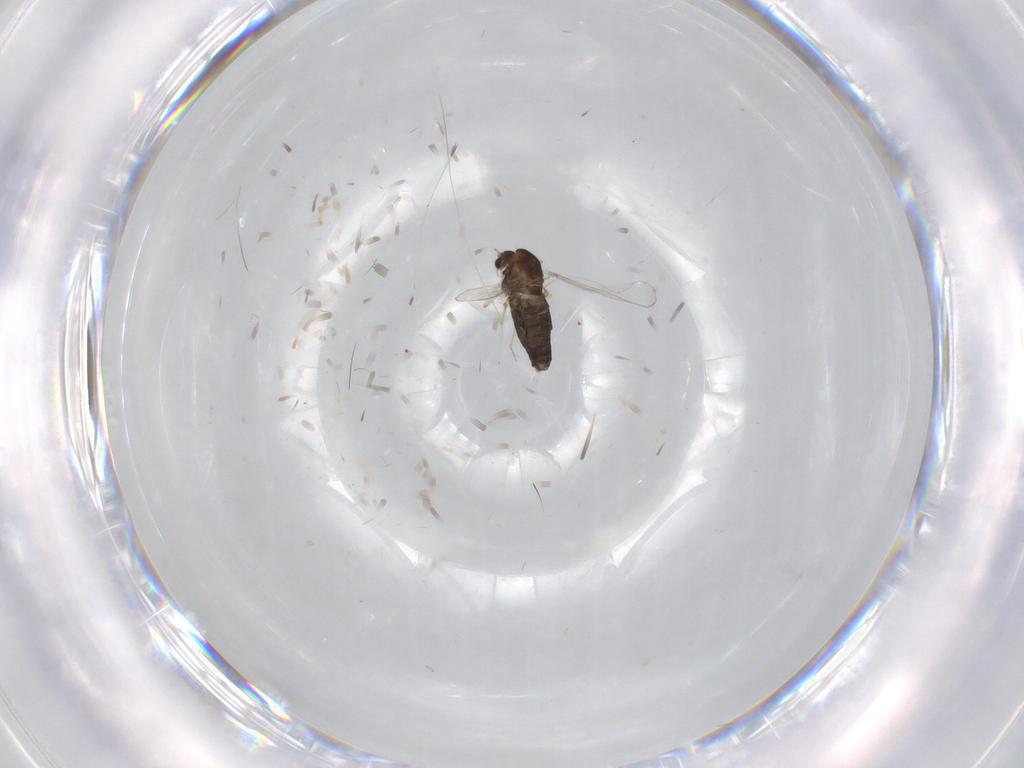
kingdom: Animalia
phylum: Arthropoda
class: Insecta
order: Diptera
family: Chironomidae
